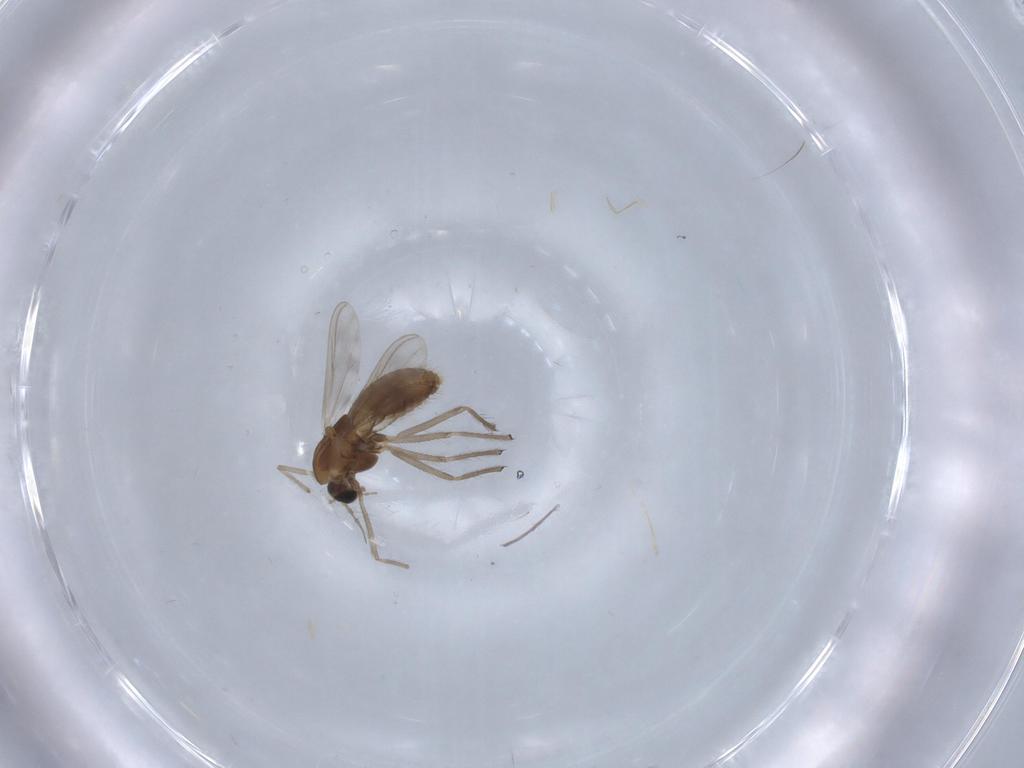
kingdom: Animalia
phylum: Arthropoda
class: Insecta
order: Diptera
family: Chironomidae
